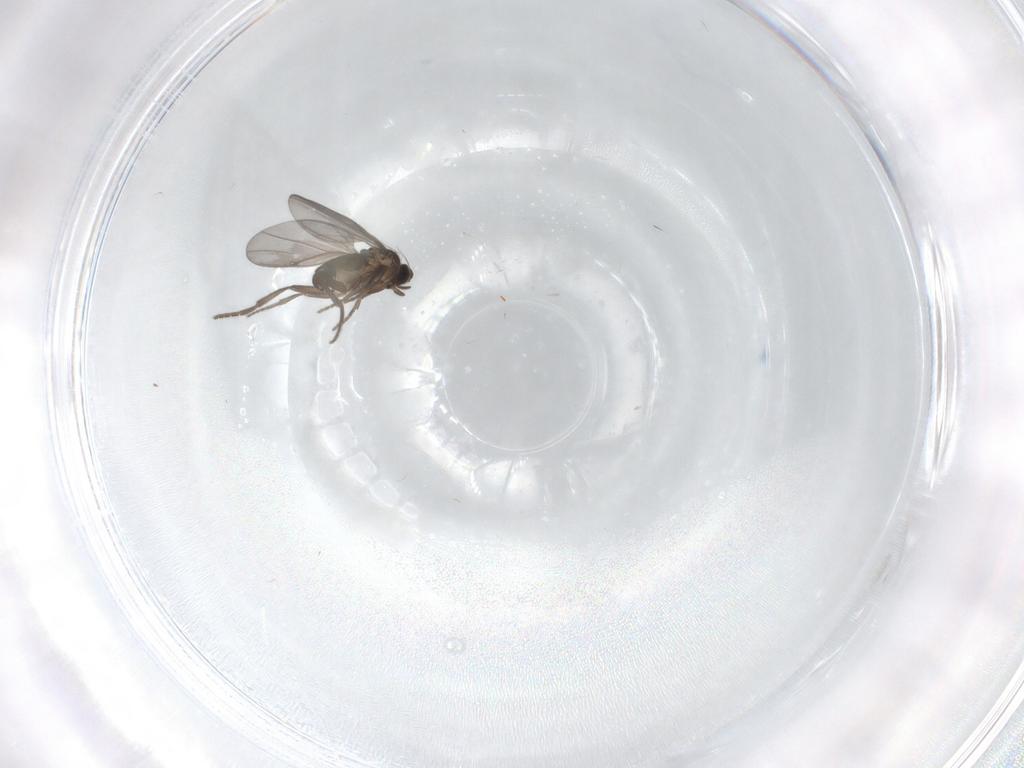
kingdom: Animalia
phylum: Arthropoda
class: Insecta
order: Diptera
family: Phoridae
